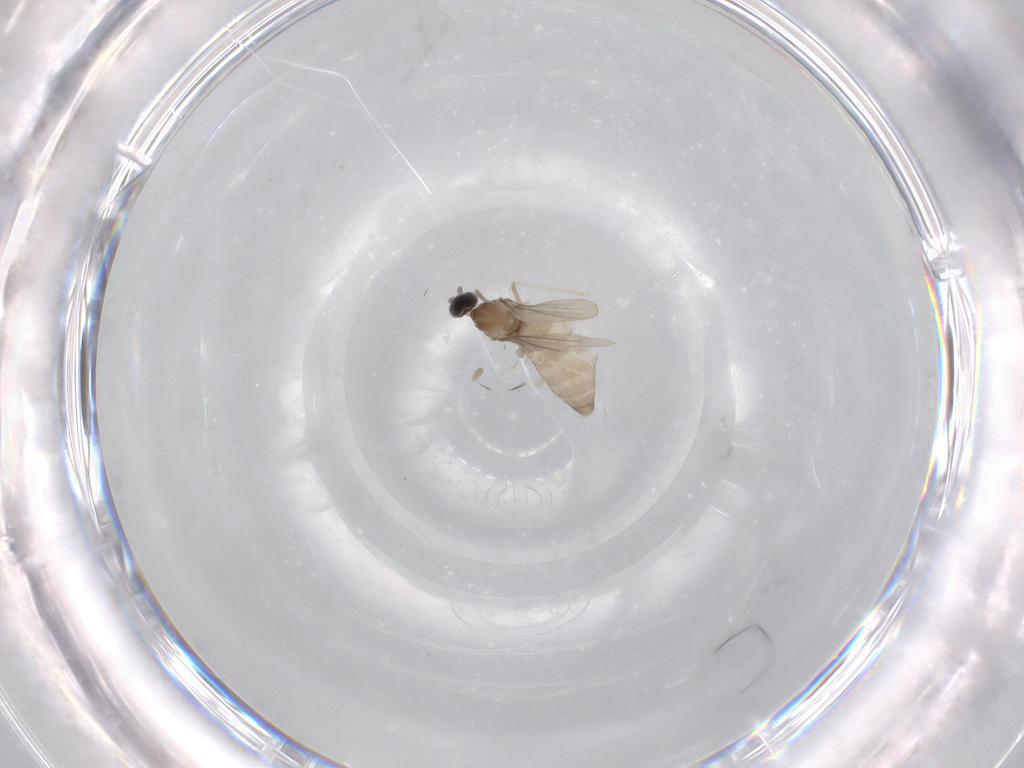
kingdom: Animalia
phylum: Arthropoda
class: Insecta
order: Diptera
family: Cecidomyiidae
